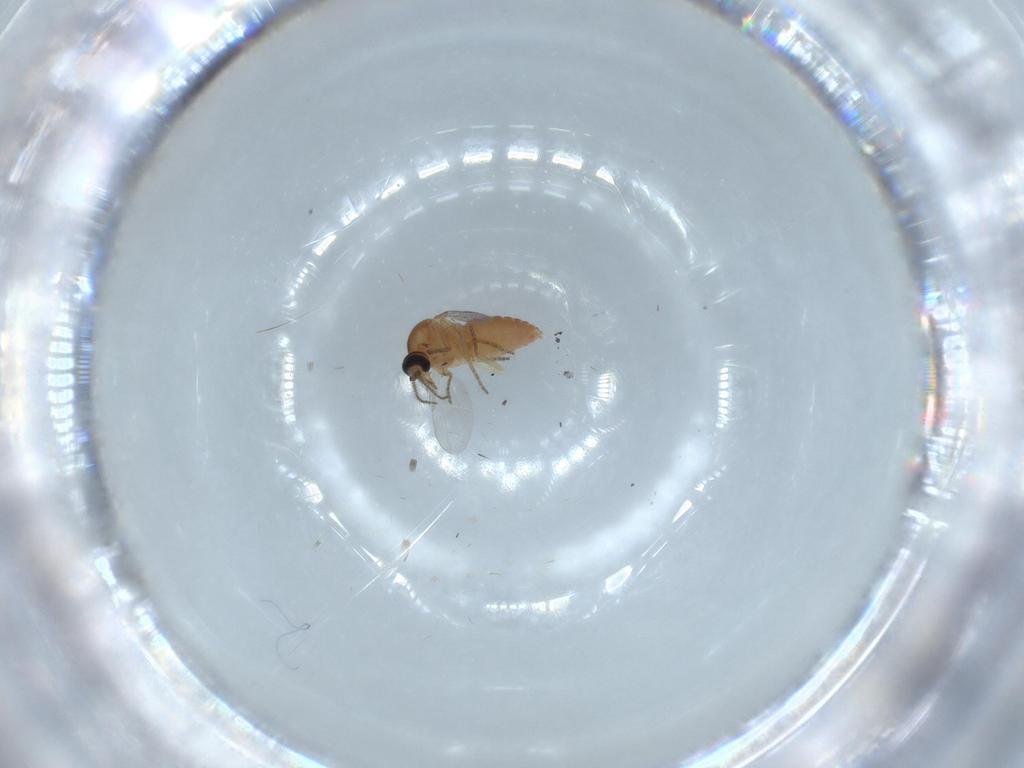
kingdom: Animalia
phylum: Arthropoda
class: Insecta
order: Diptera
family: Ceratopogonidae
